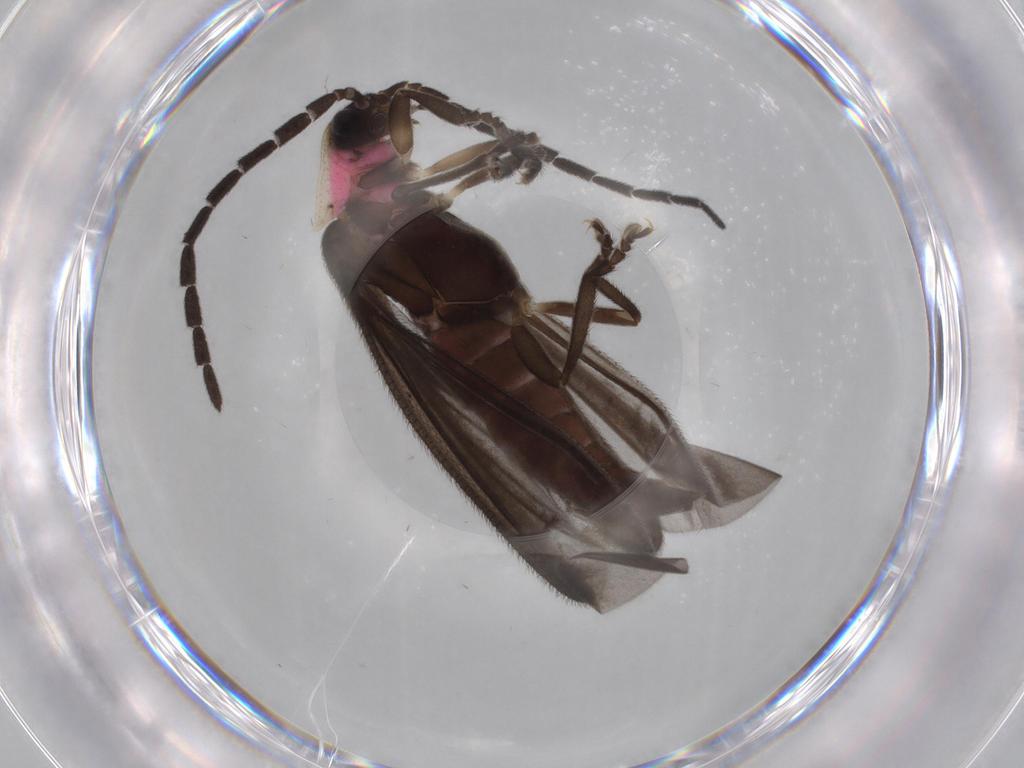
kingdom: Animalia
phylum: Arthropoda
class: Insecta
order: Coleoptera
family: Lampyridae
